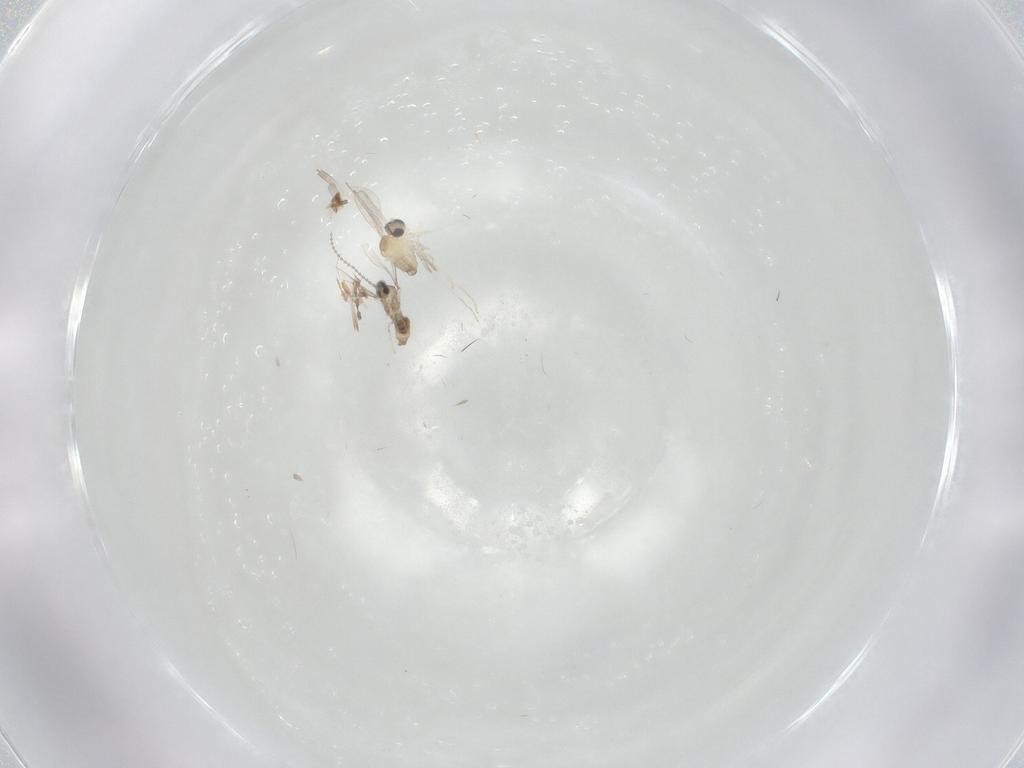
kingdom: Animalia
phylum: Arthropoda
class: Insecta
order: Diptera
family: Cecidomyiidae
